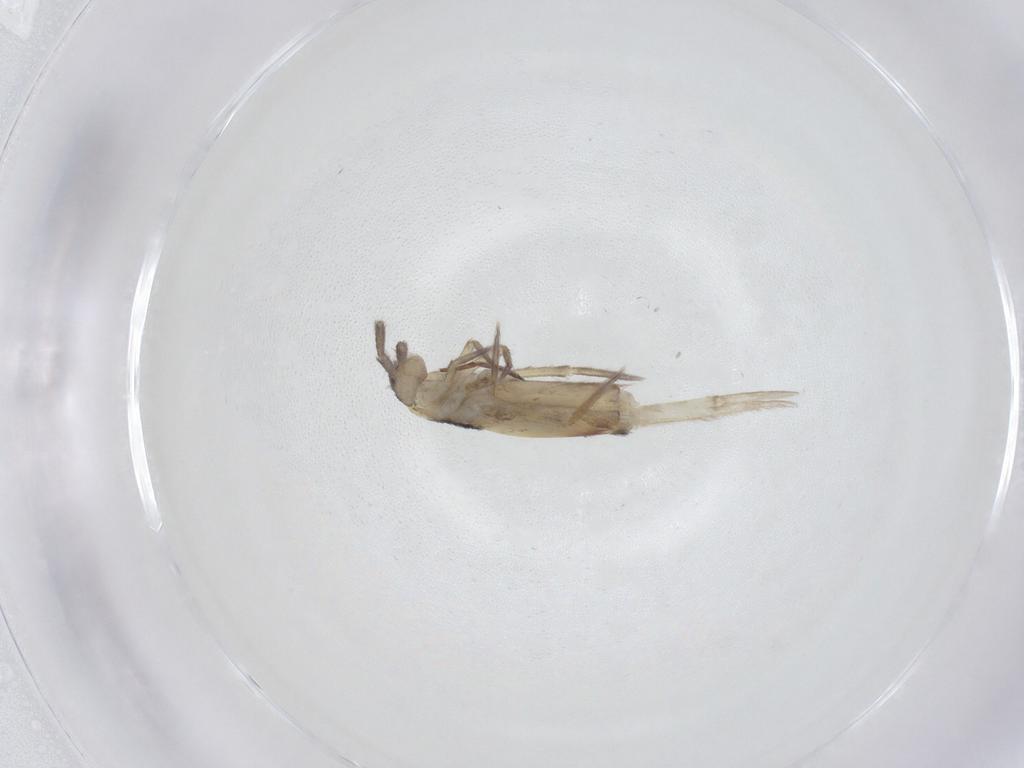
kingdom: Animalia
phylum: Arthropoda
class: Collembola
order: Entomobryomorpha
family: Entomobryidae
